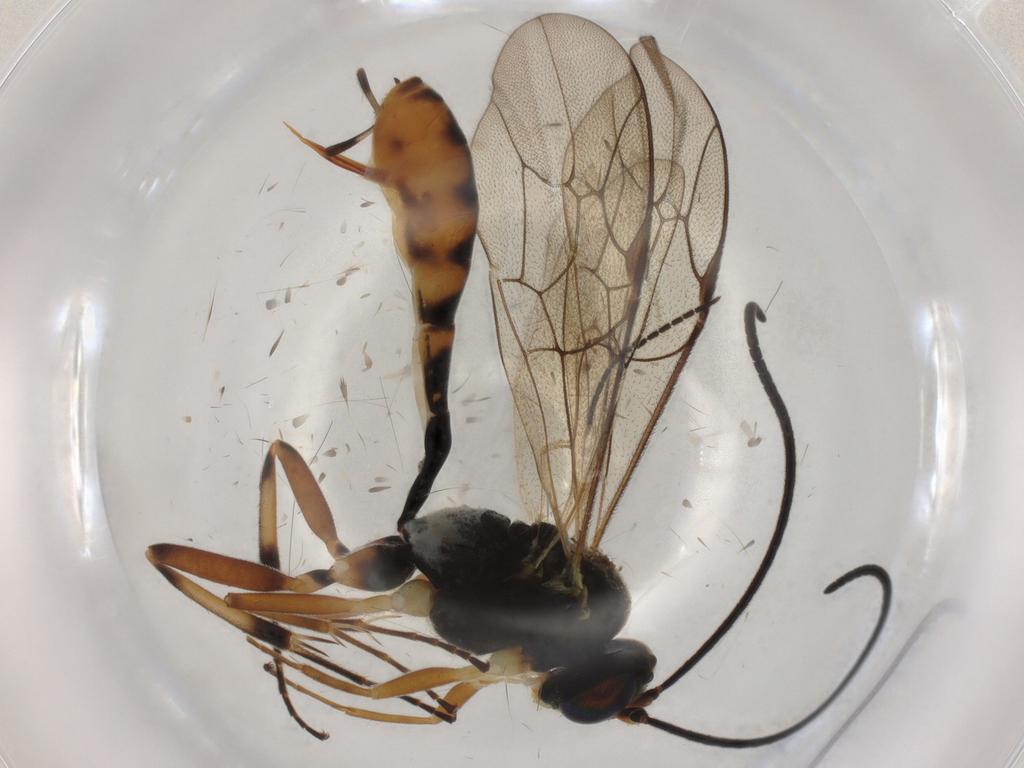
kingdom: Animalia
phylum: Arthropoda
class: Insecta
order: Hymenoptera
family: Ichneumonidae
